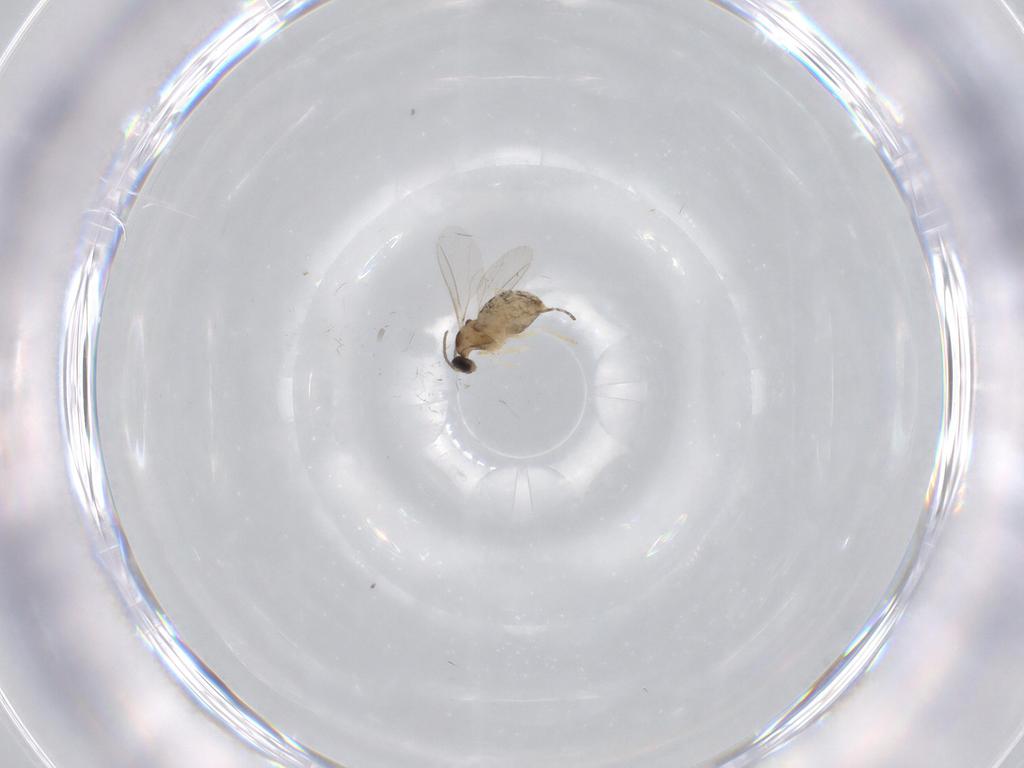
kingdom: Animalia
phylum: Arthropoda
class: Insecta
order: Diptera
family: Cecidomyiidae
